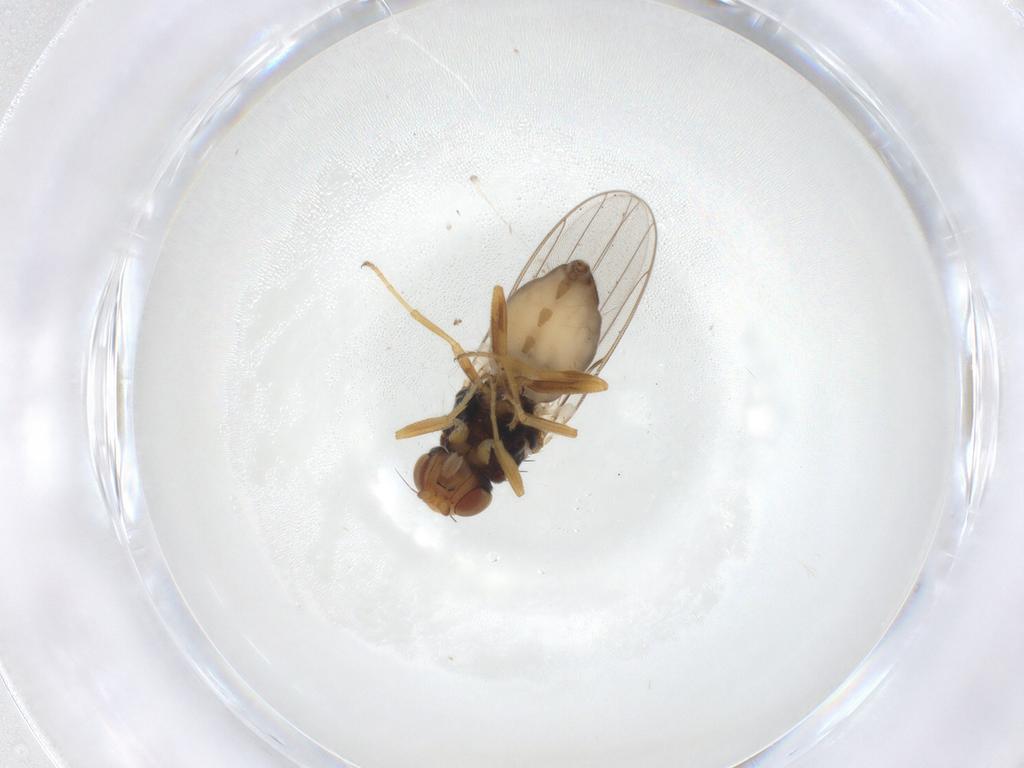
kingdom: Animalia
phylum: Arthropoda
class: Insecta
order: Diptera
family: Chloropidae
